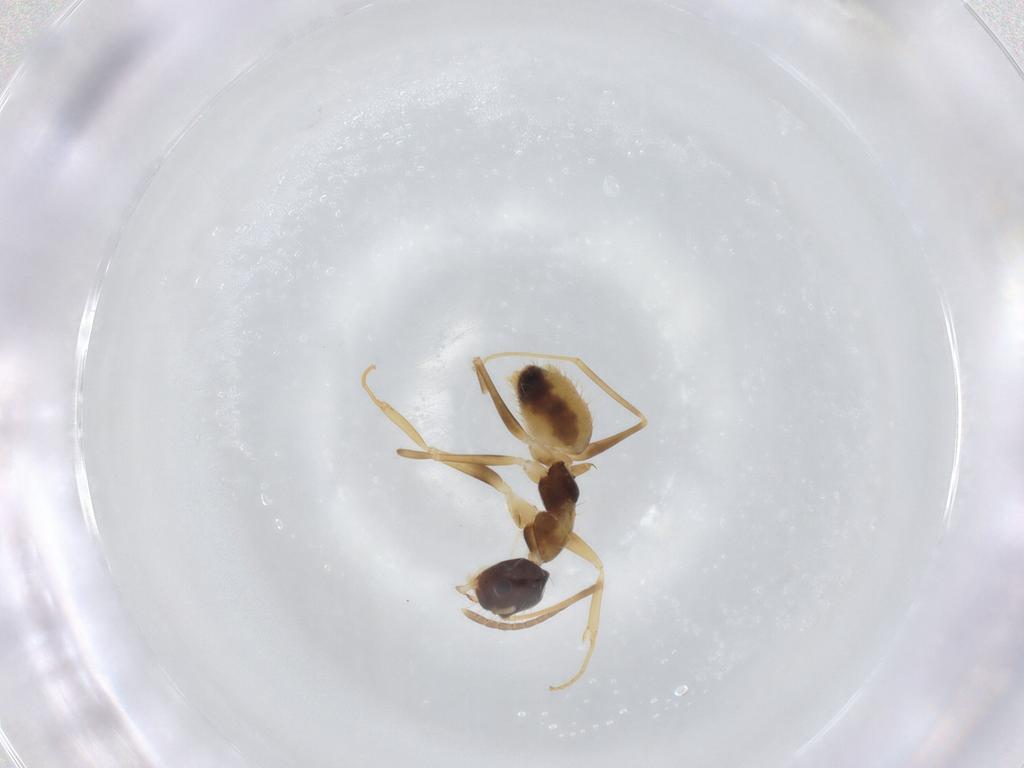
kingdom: Animalia
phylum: Arthropoda
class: Insecta
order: Hymenoptera
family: Formicidae
